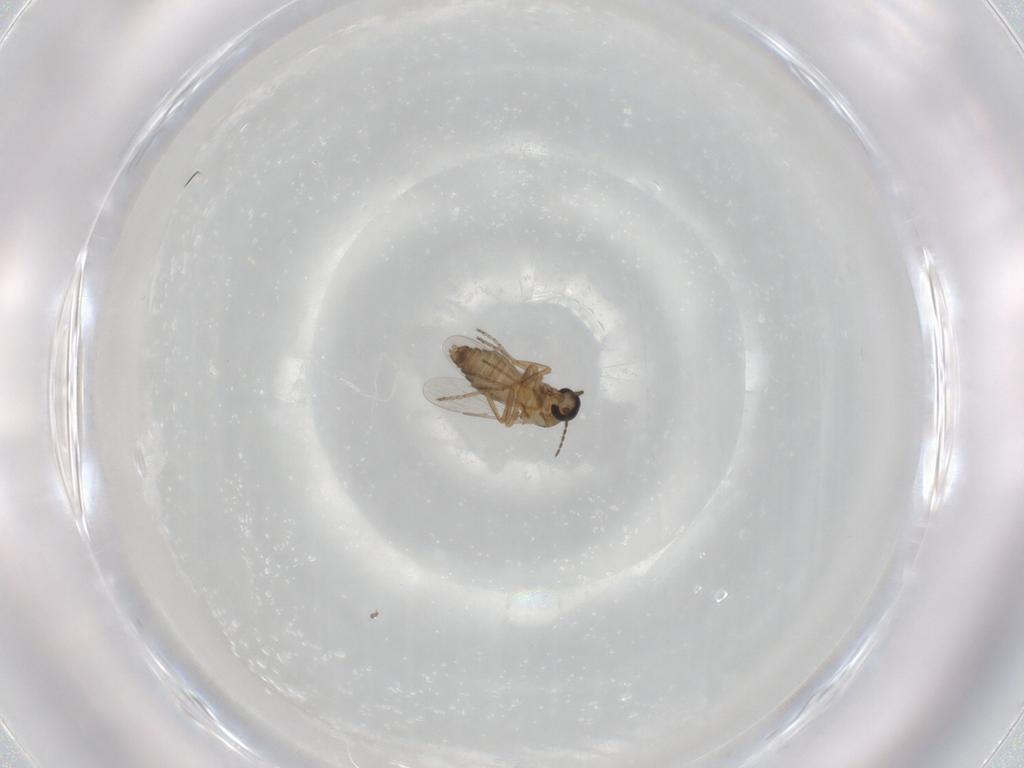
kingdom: Animalia
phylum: Arthropoda
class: Insecta
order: Diptera
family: Ceratopogonidae
